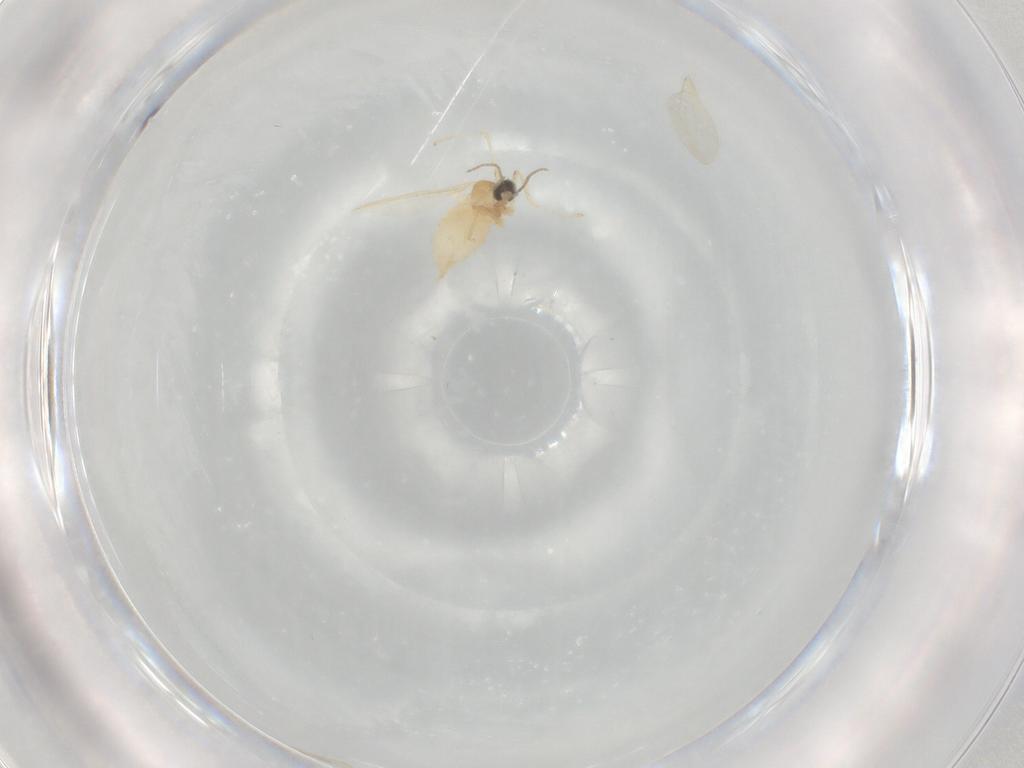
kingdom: Animalia
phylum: Arthropoda
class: Insecta
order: Diptera
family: Cecidomyiidae
